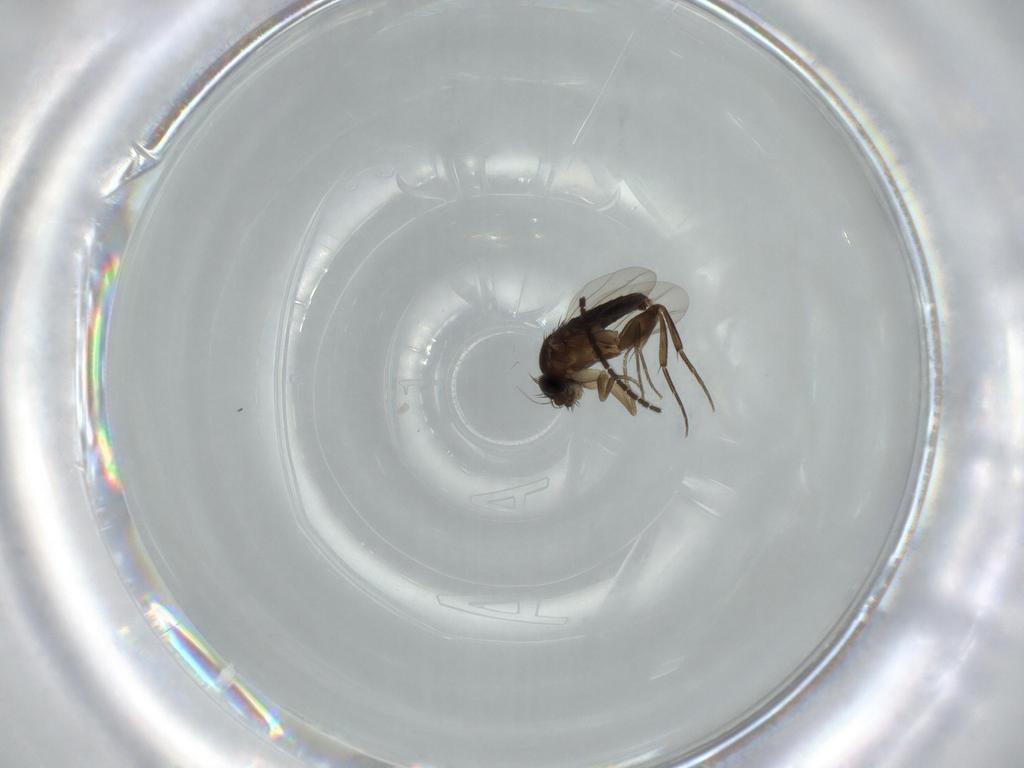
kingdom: Animalia
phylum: Arthropoda
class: Insecta
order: Diptera
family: Sciaridae
